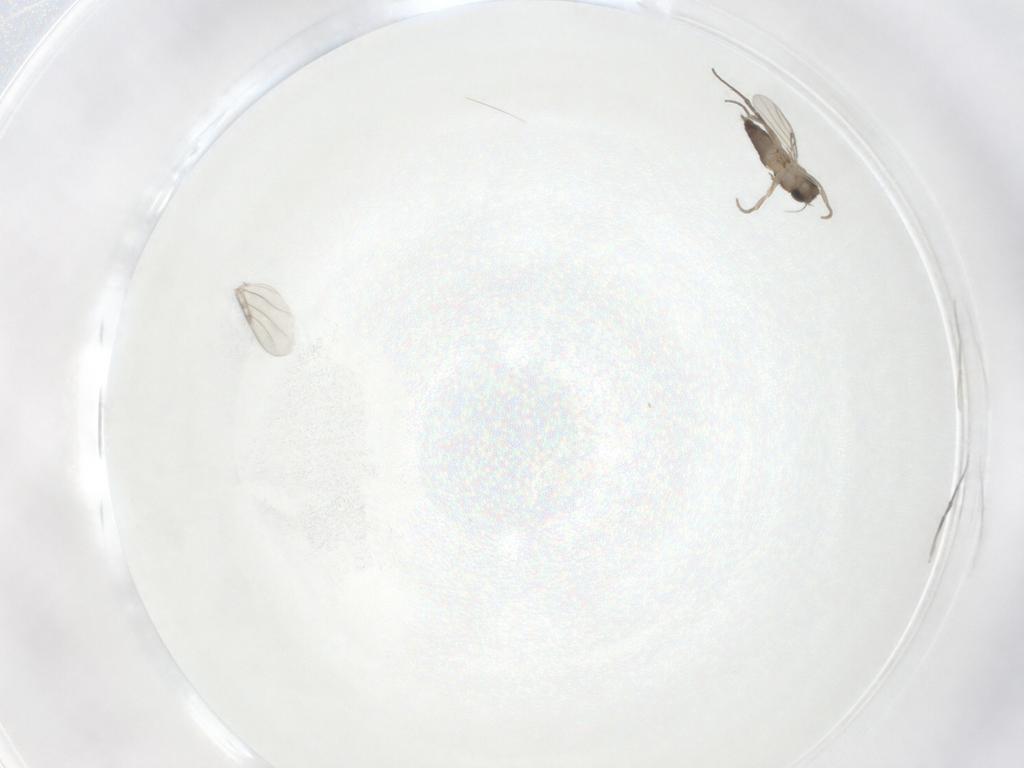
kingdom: Animalia
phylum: Arthropoda
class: Insecta
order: Diptera
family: Phoridae
